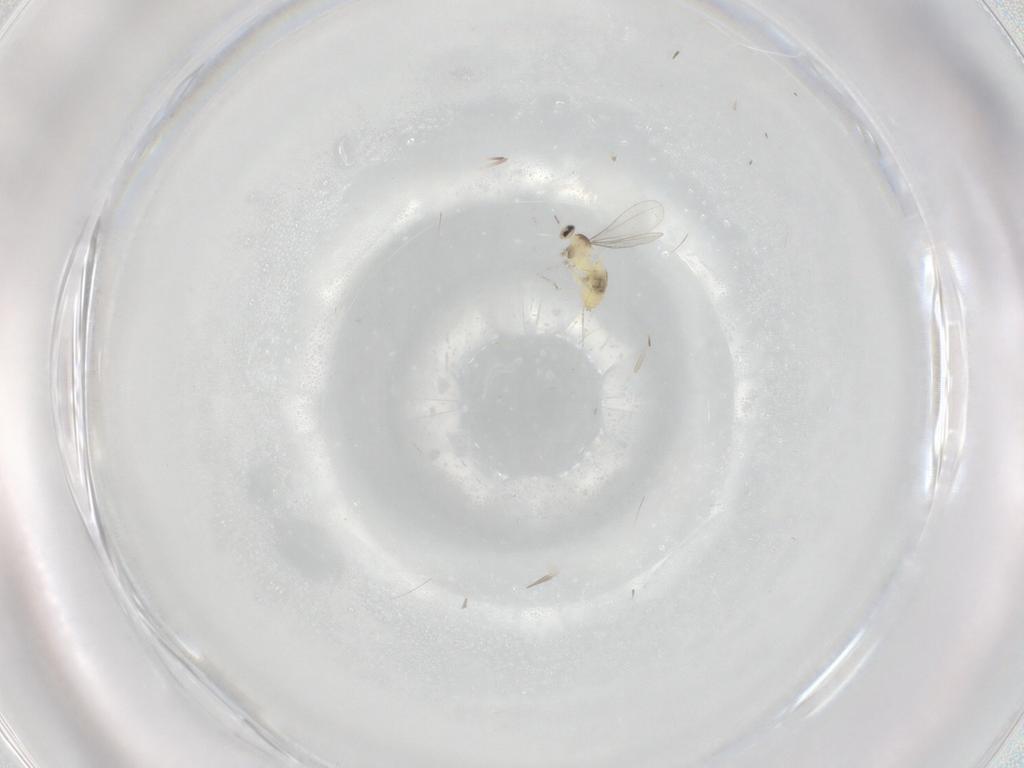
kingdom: Animalia
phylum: Arthropoda
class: Insecta
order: Diptera
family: Cecidomyiidae
